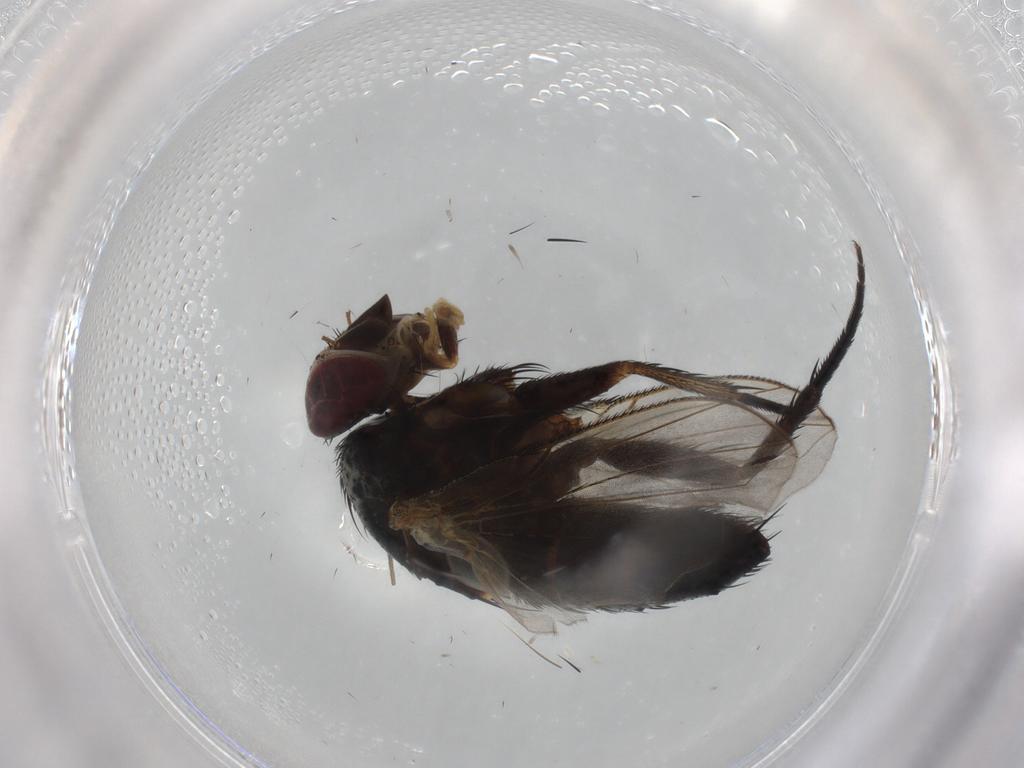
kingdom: Animalia
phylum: Arthropoda
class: Insecta
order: Diptera
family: Tachinidae
